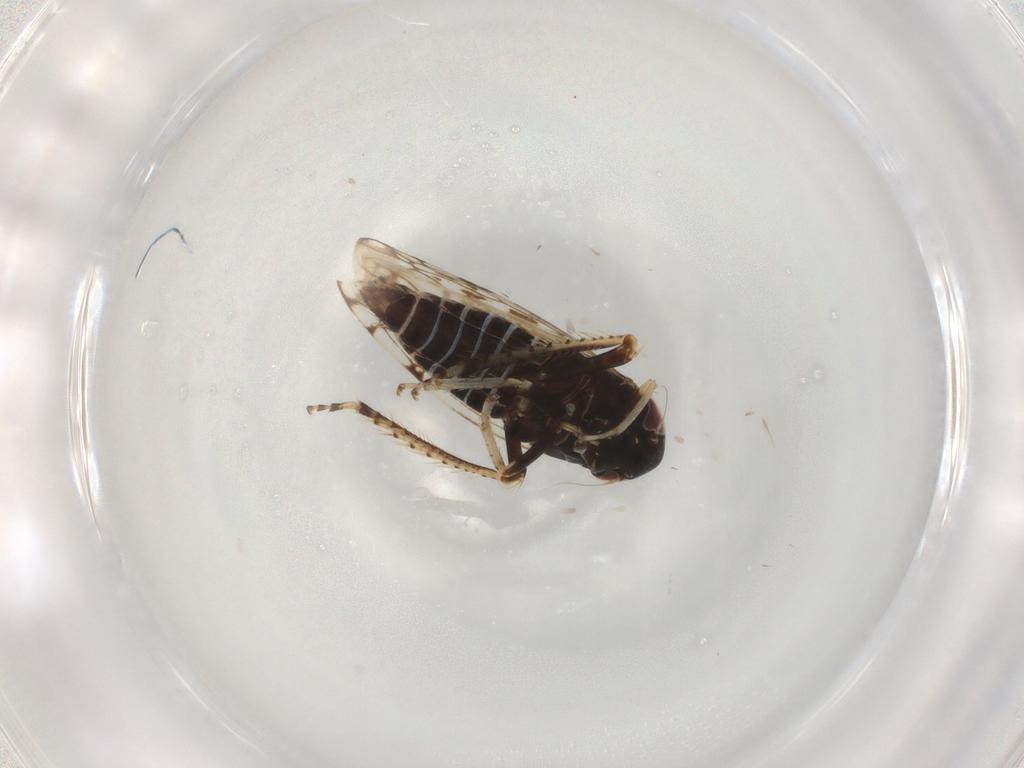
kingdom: Animalia
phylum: Arthropoda
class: Insecta
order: Hemiptera
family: Cicadellidae
